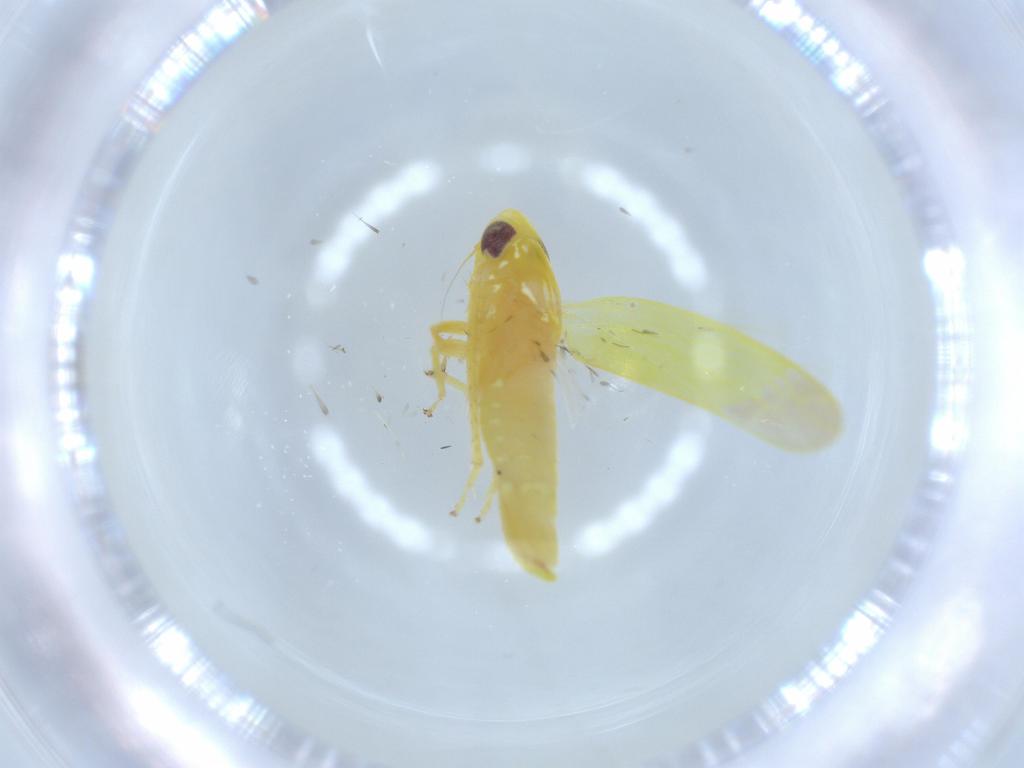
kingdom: Animalia
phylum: Arthropoda
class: Insecta
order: Hemiptera
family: Cicadellidae
